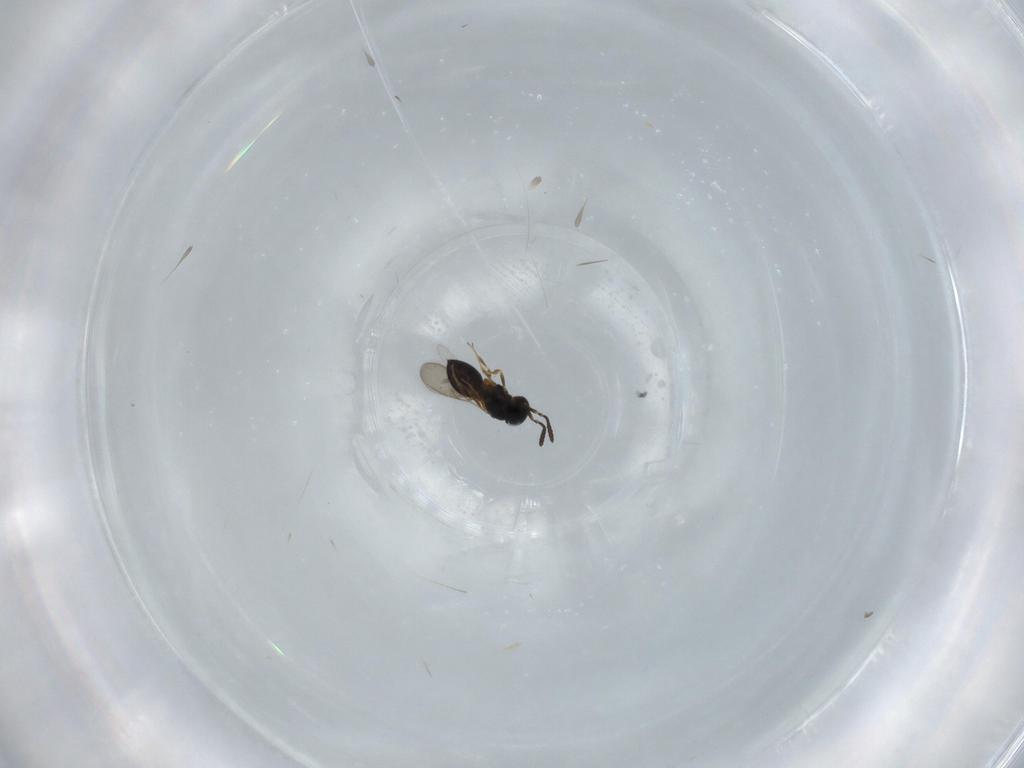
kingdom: Animalia
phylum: Arthropoda
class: Insecta
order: Hymenoptera
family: Scelionidae
